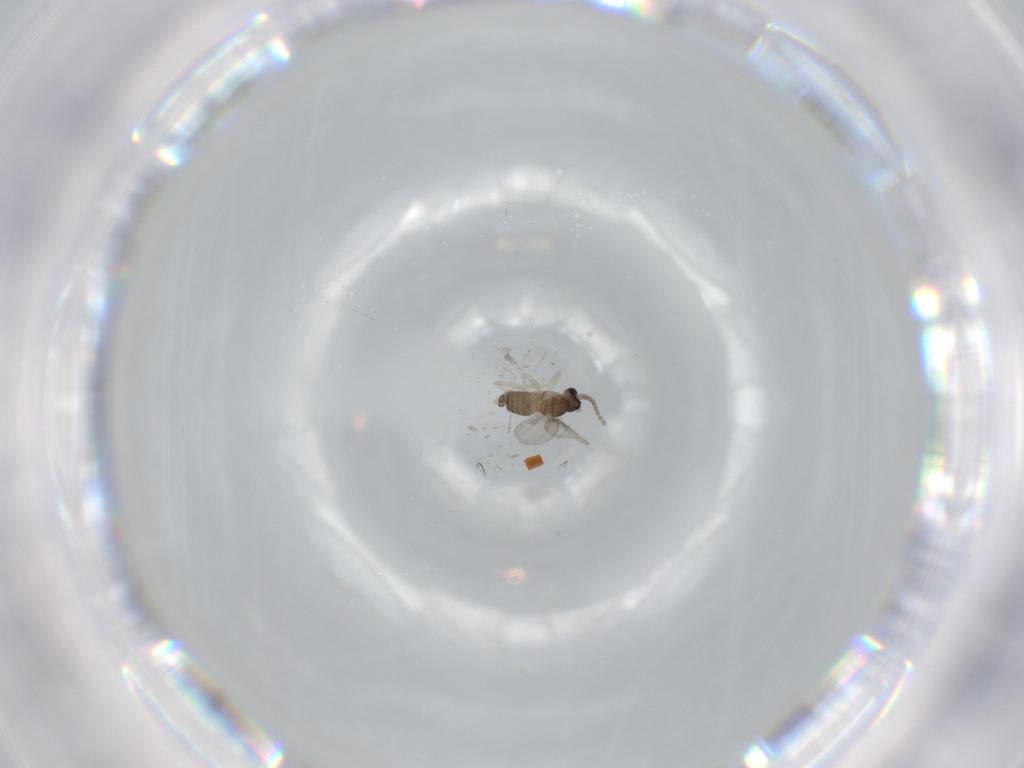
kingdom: Animalia
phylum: Arthropoda
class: Insecta
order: Diptera
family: Cecidomyiidae
